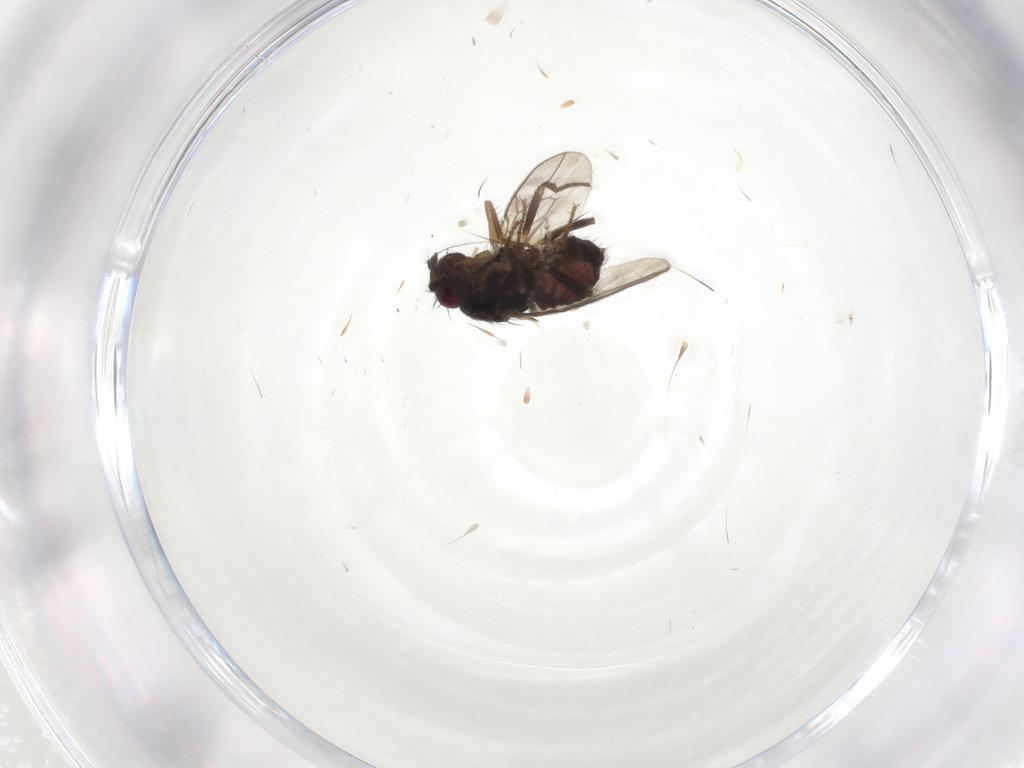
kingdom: Animalia
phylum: Arthropoda
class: Insecta
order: Diptera
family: Sphaeroceridae
